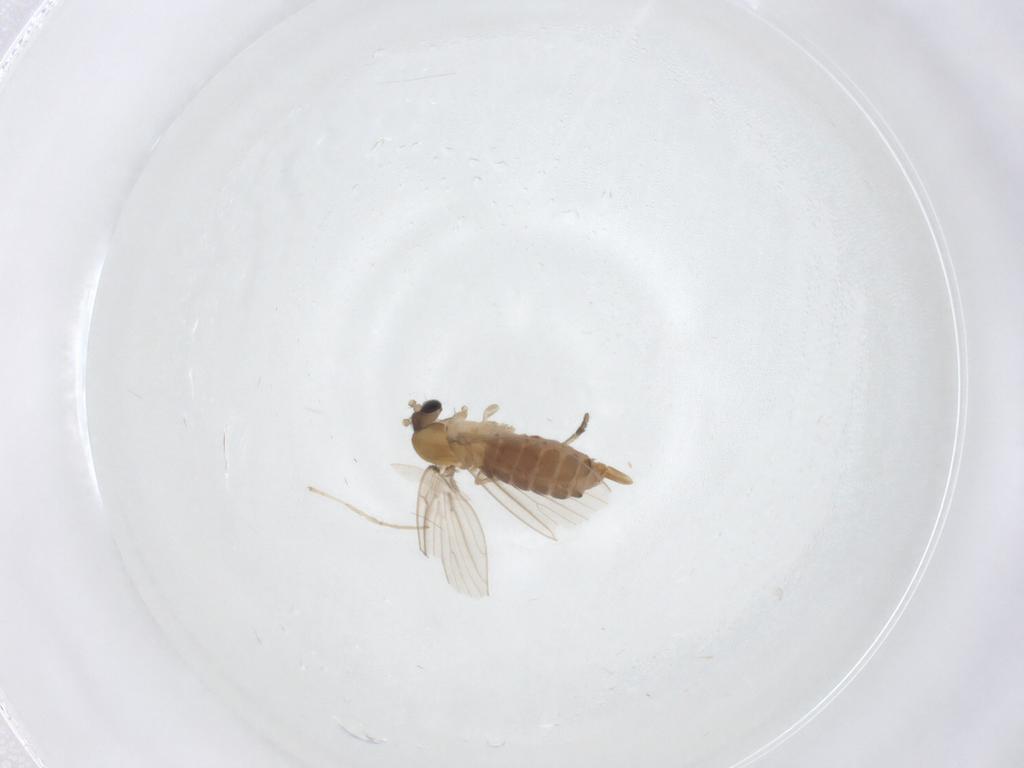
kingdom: Animalia
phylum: Arthropoda
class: Insecta
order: Diptera
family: Psychodidae
